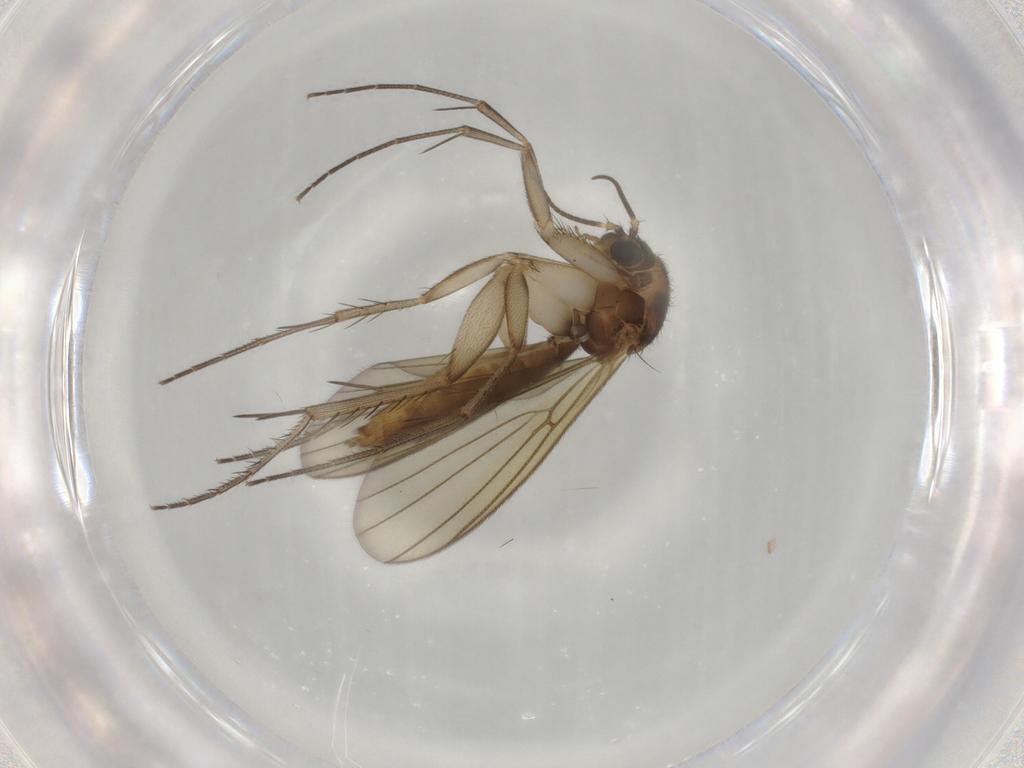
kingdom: Animalia
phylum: Arthropoda
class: Insecta
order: Diptera
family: Mycetophilidae
